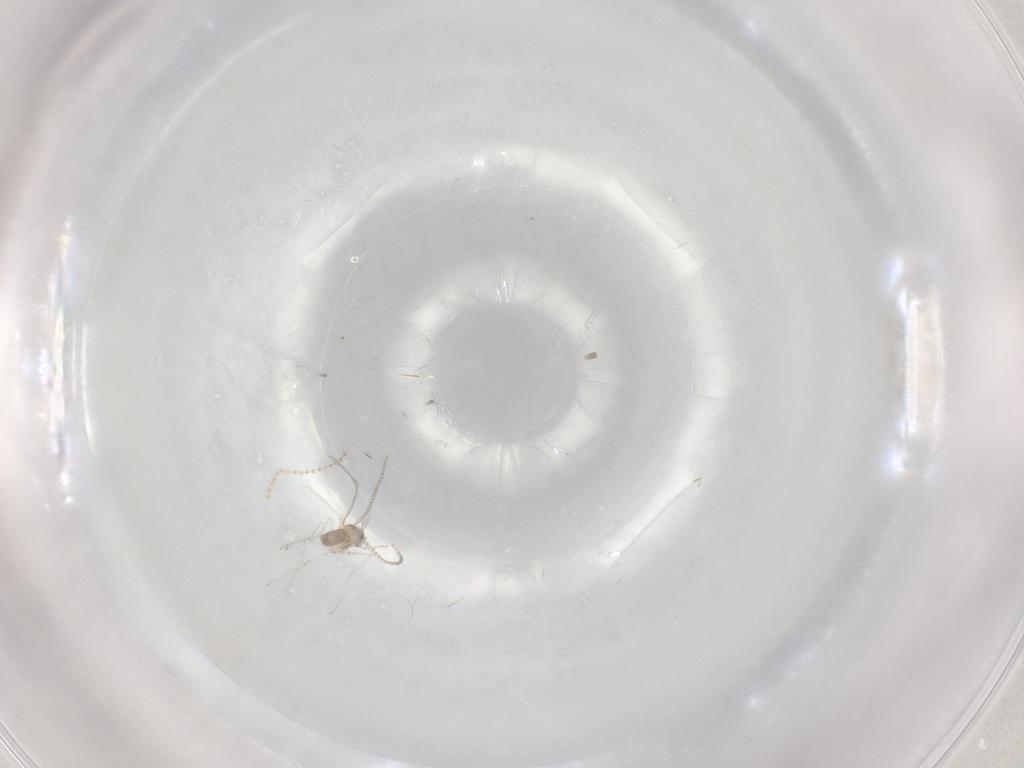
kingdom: Animalia
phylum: Arthropoda
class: Insecta
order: Diptera
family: Cecidomyiidae
